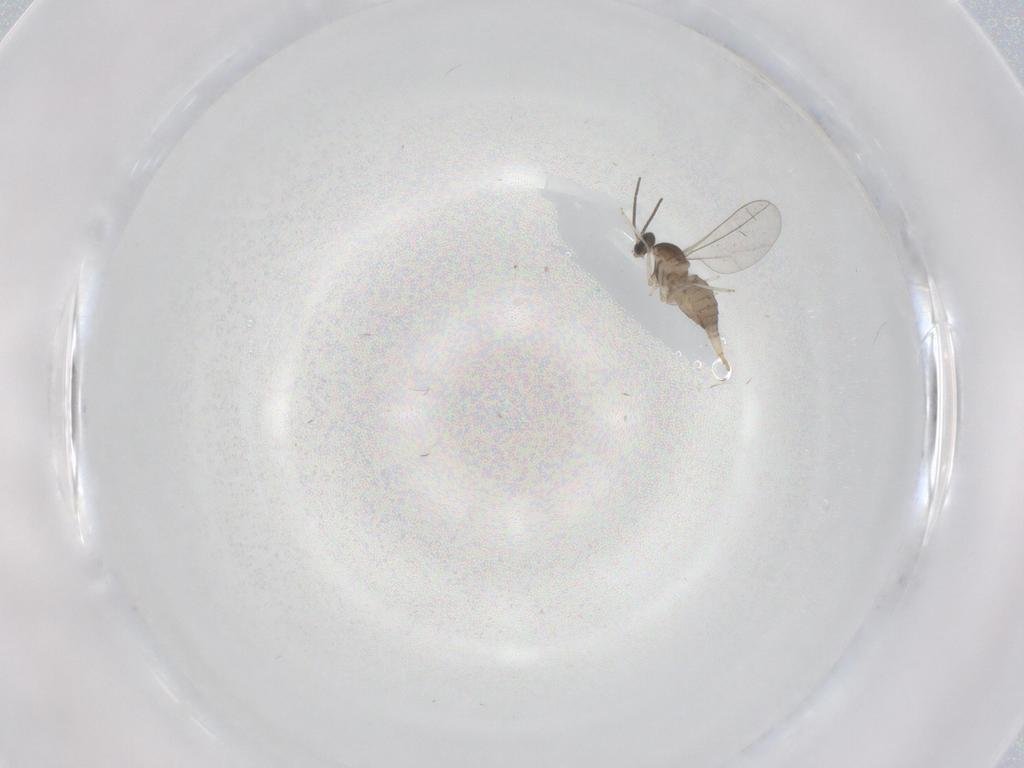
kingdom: Animalia
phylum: Arthropoda
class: Insecta
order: Diptera
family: Cecidomyiidae
